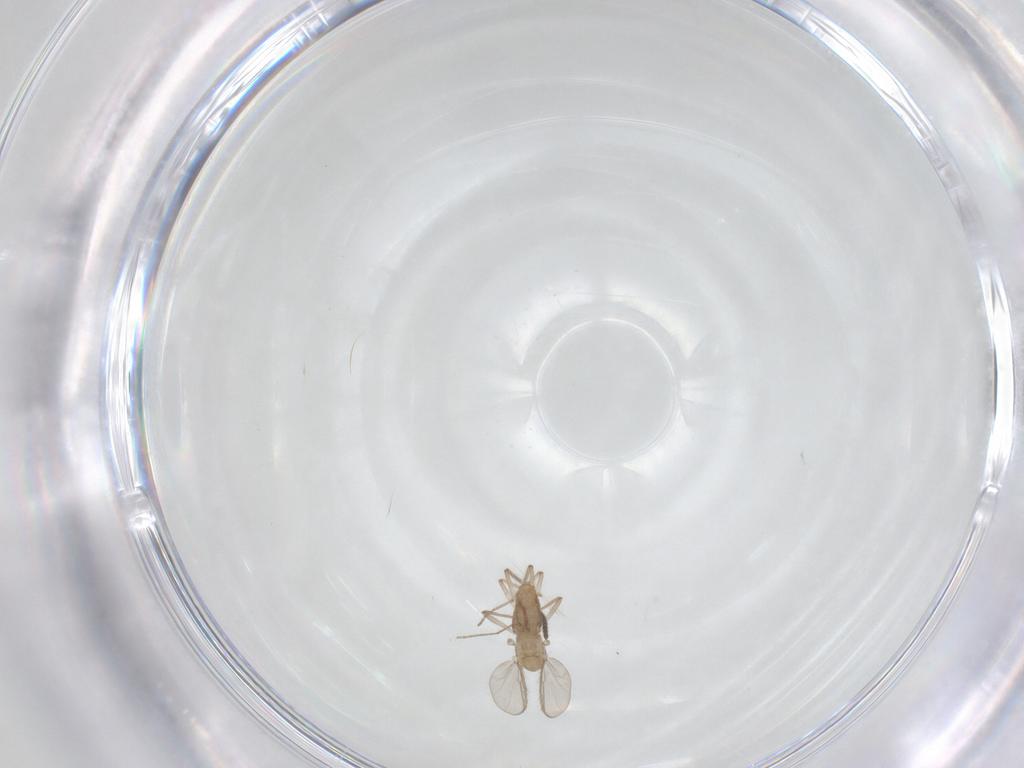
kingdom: Animalia
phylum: Arthropoda
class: Insecta
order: Diptera
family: Chironomidae
